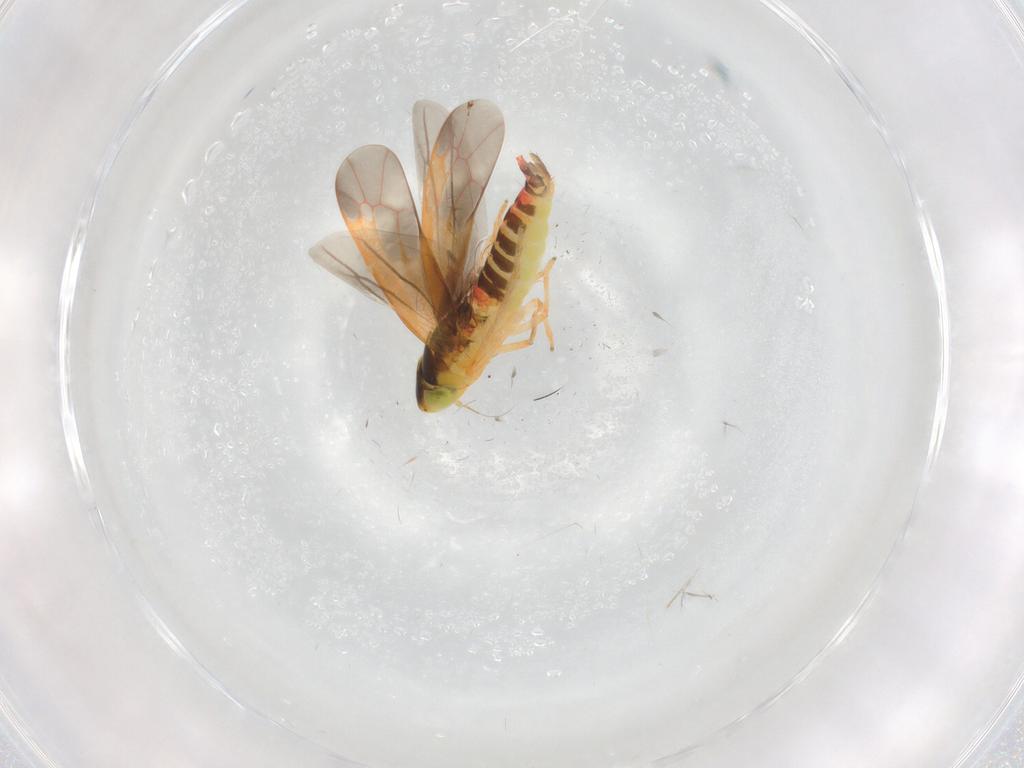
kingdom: Animalia
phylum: Arthropoda
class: Insecta
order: Hemiptera
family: Cicadellidae
